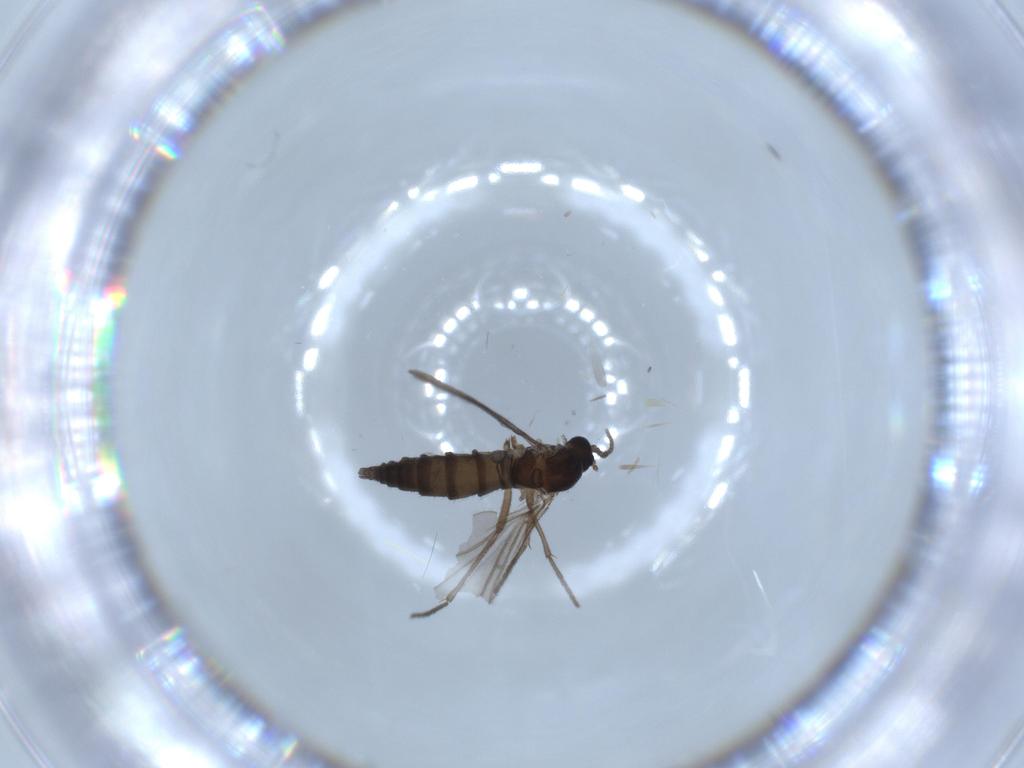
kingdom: Animalia
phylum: Arthropoda
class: Insecta
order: Diptera
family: Sciaridae
